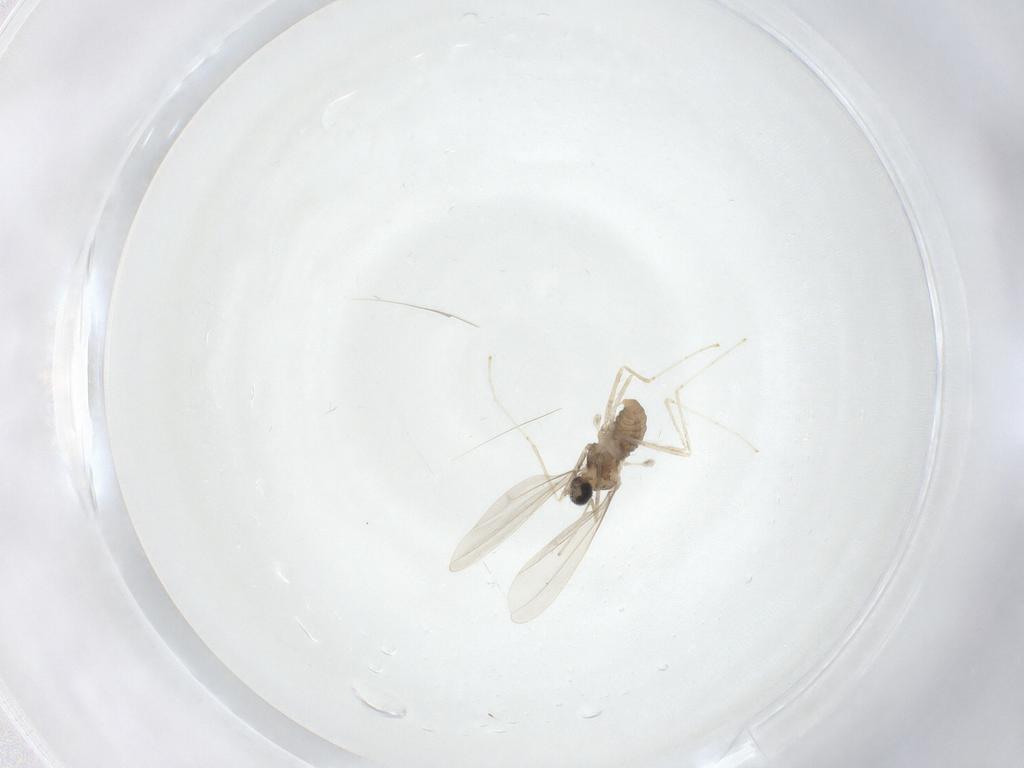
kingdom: Animalia
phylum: Arthropoda
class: Insecta
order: Diptera
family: Cecidomyiidae
